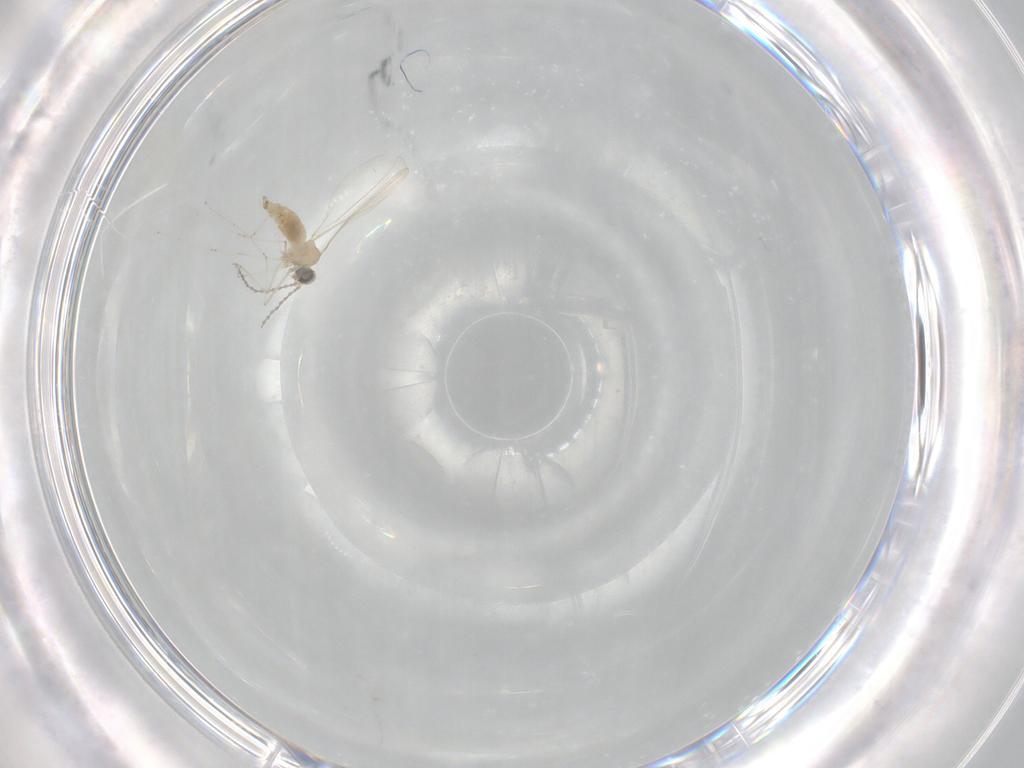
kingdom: Animalia
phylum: Arthropoda
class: Insecta
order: Diptera
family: Cecidomyiidae
